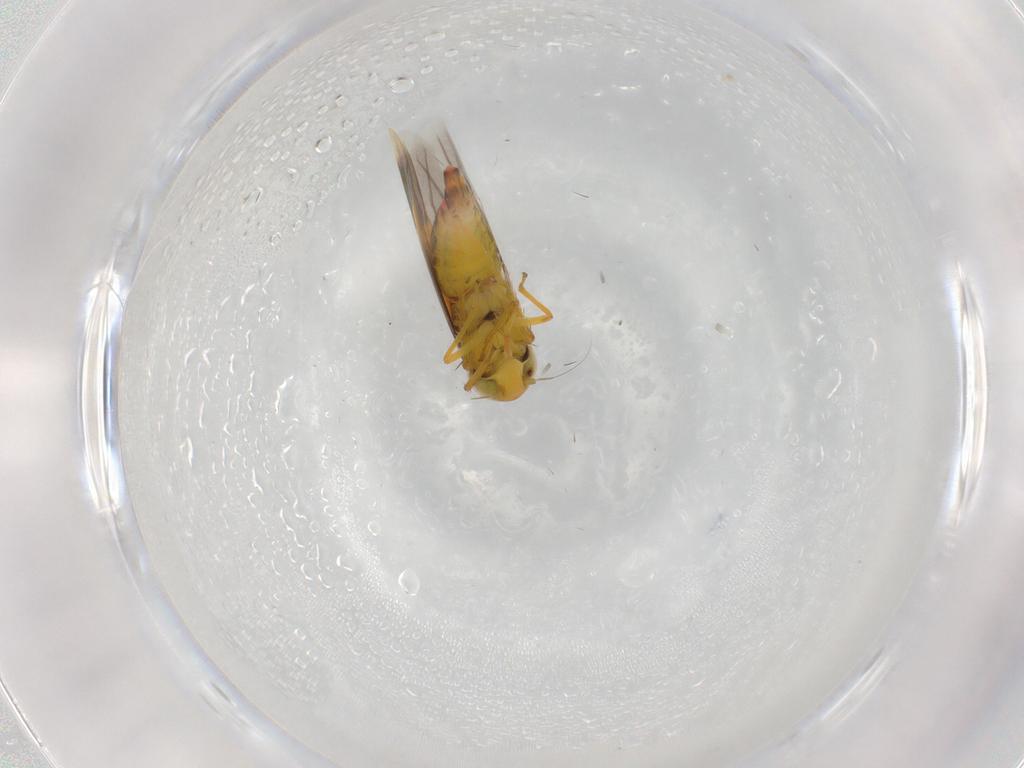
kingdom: Animalia
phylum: Arthropoda
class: Insecta
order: Hemiptera
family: Cicadellidae
